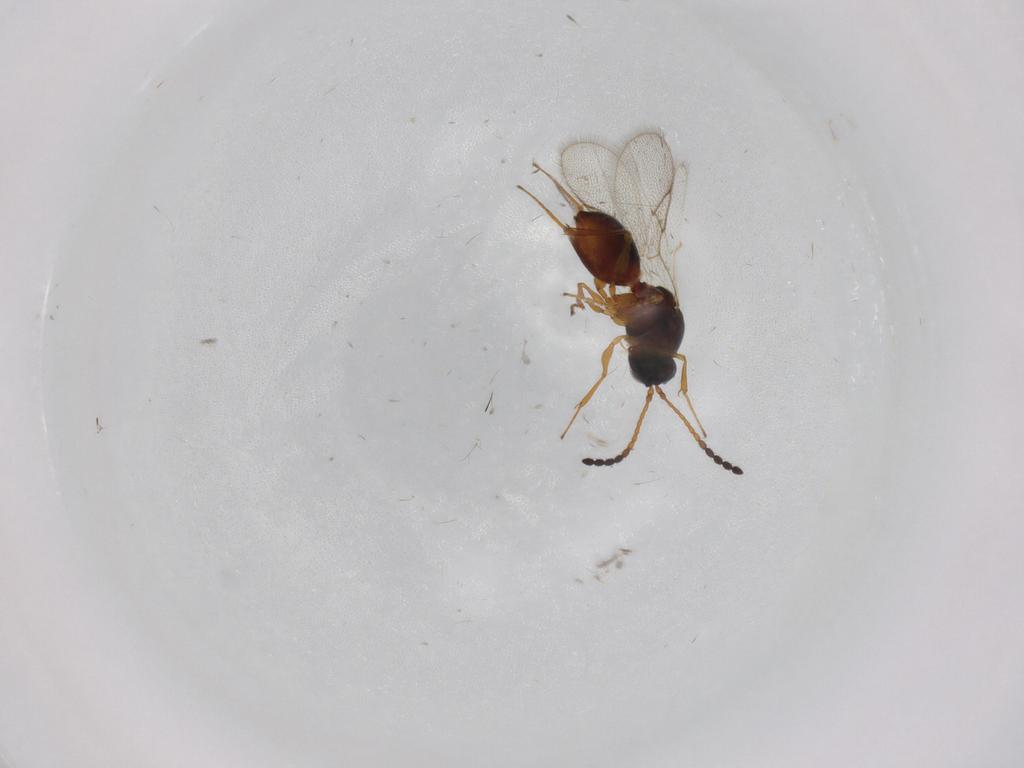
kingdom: Animalia
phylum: Arthropoda
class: Insecta
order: Hymenoptera
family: Figitidae
